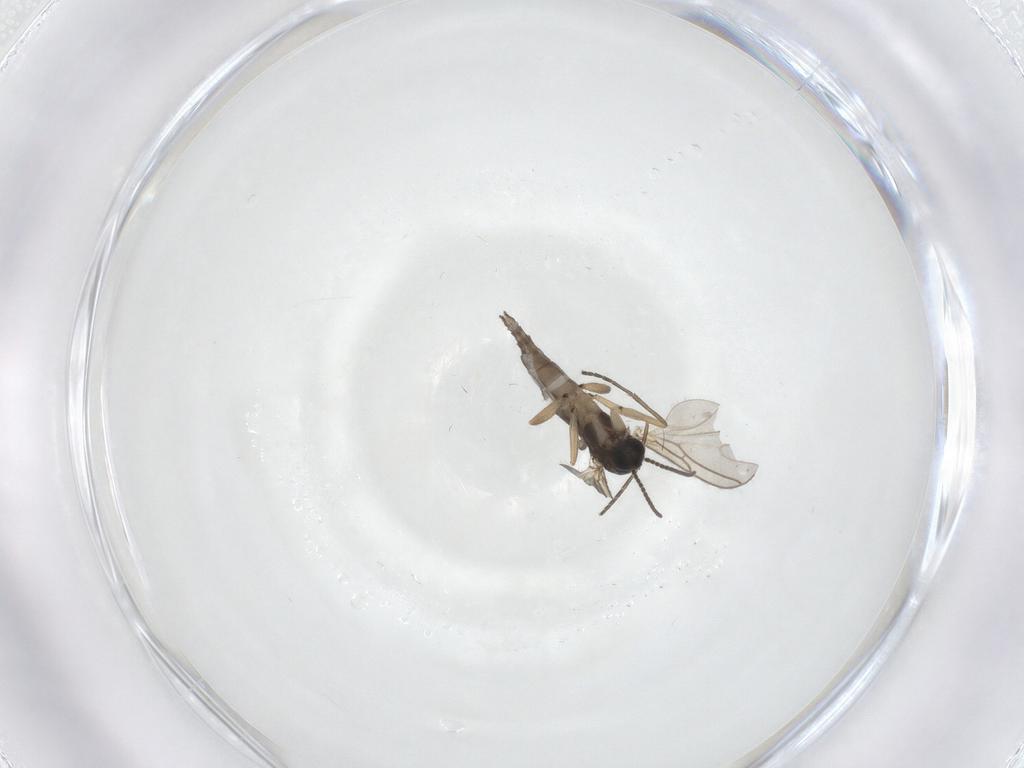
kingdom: Animalia
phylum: Arthropoda
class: Insecta
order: Diptera
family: Sciaridae
